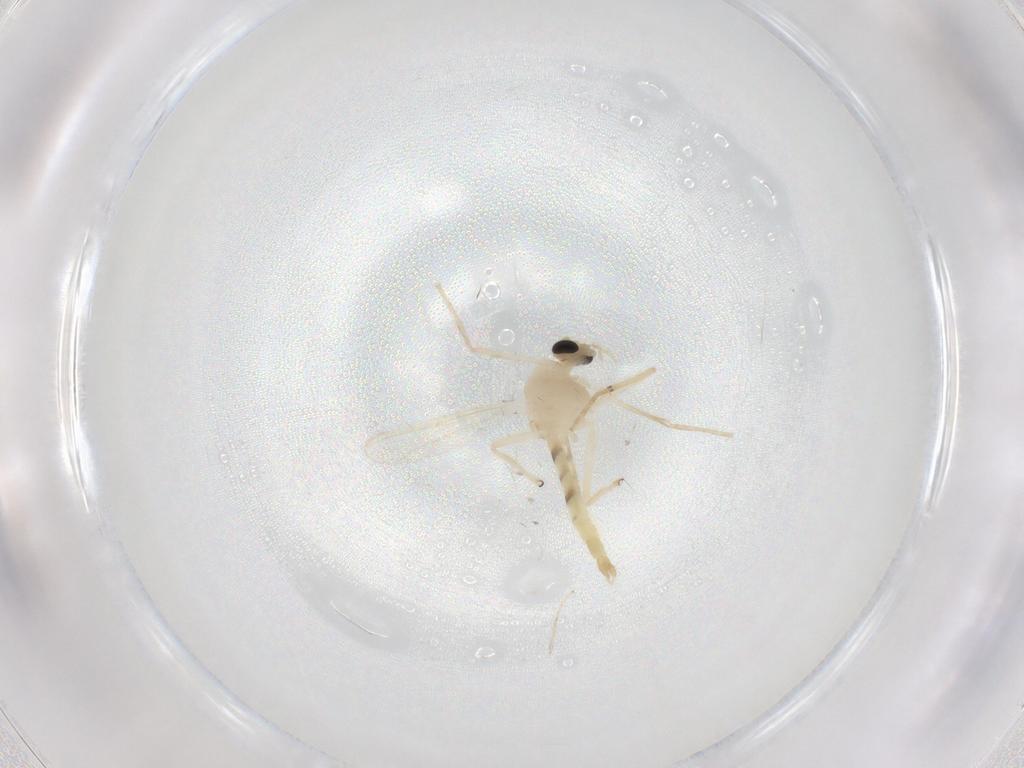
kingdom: Animalia
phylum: Arthropoda
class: Insecta
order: Diptera
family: Chironomidae
